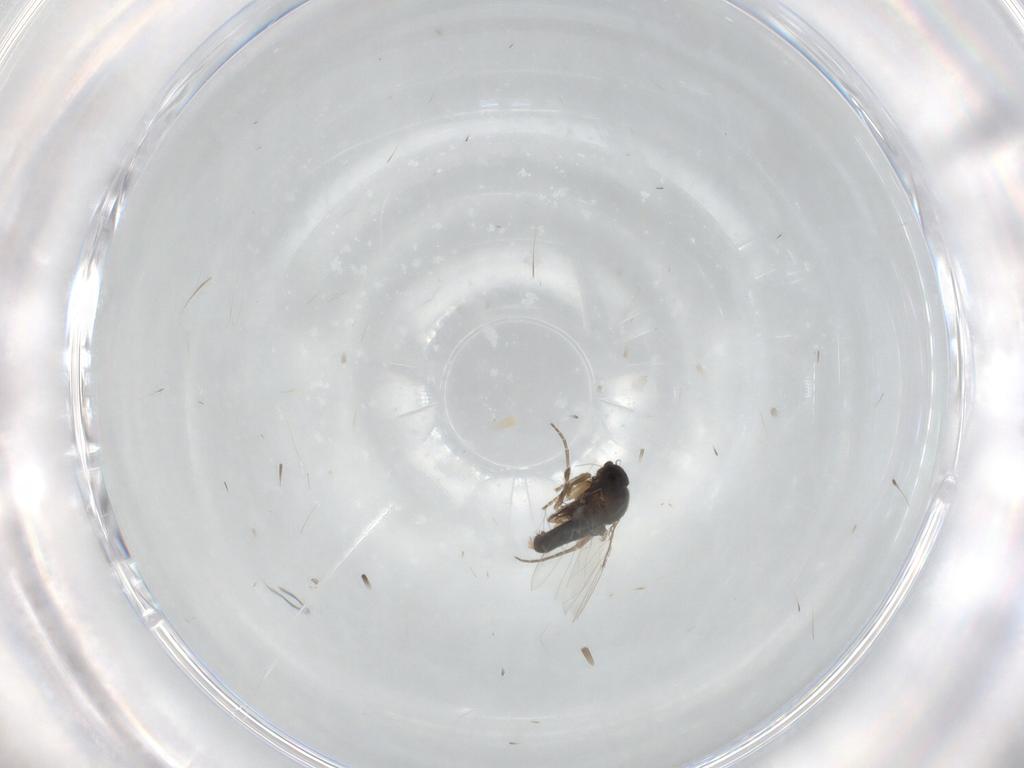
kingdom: Animalia
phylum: Arthropoda
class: Insecta
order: Diptera
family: Phoridae
